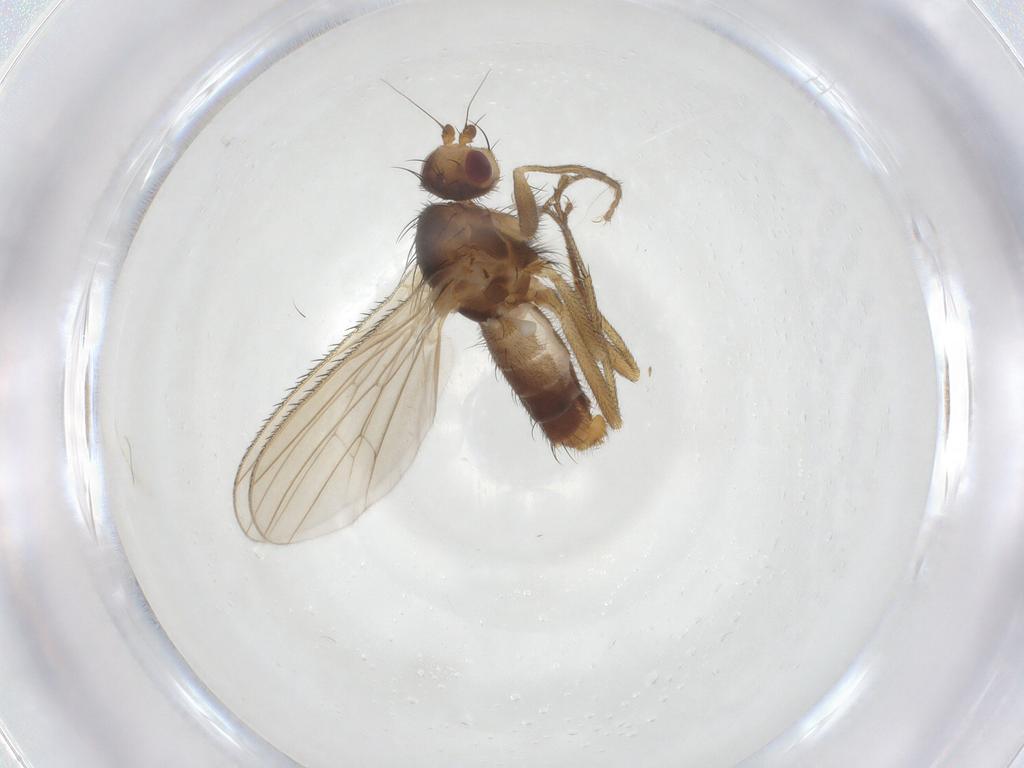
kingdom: Animalia
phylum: Arthropoda
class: Insecta
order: Diptera
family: Heleomyzidae
